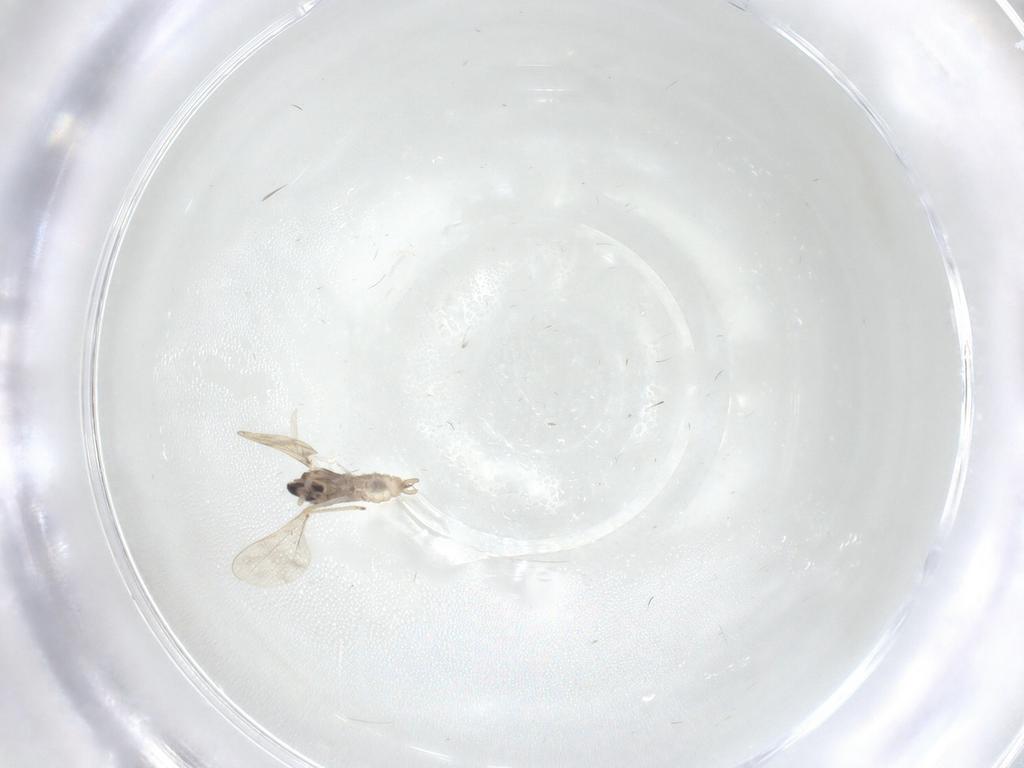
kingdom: Animalia
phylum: Arthropoda
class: Insecta
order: Diptera
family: Cecidomyiidae
